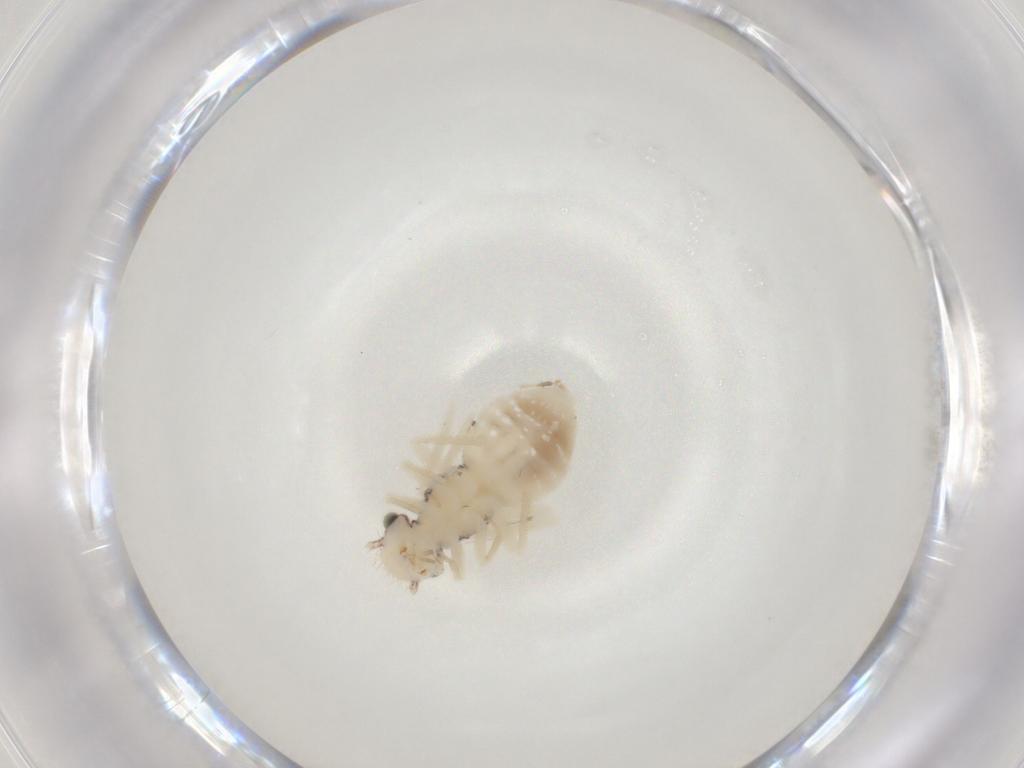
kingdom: Animalia
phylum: Arthropoda
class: Insecta
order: Psocodea
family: Philotarsidae
